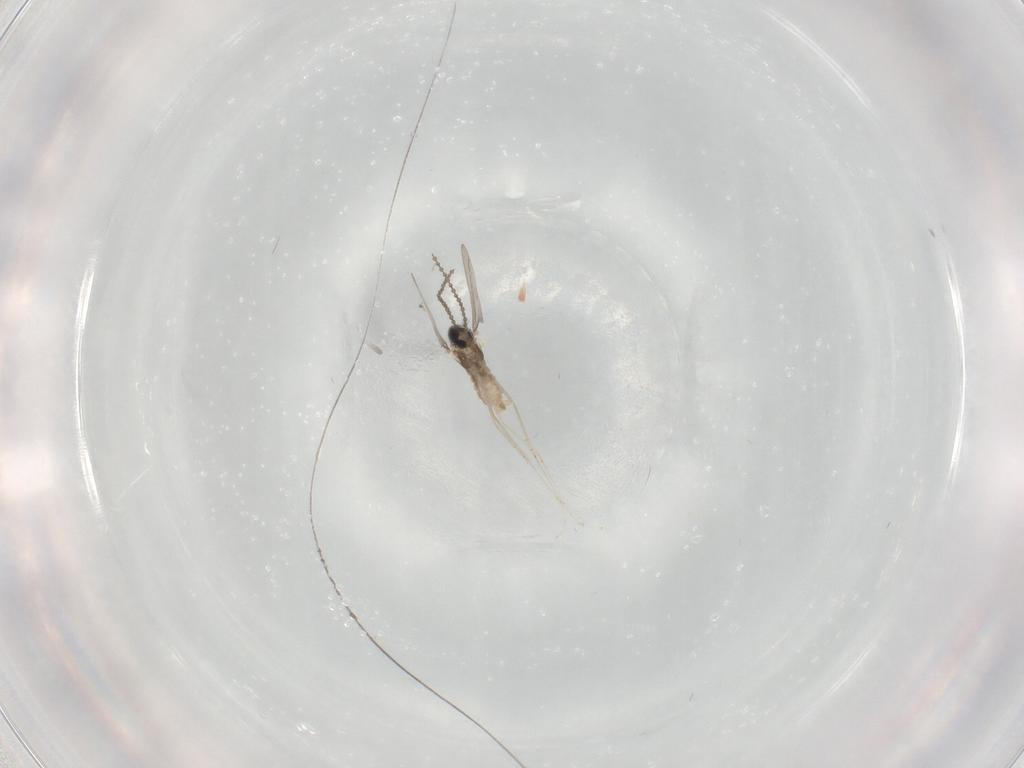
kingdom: Animalia
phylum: Arthropoda
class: Insecta
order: Diptera
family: Cecidomyiidae
